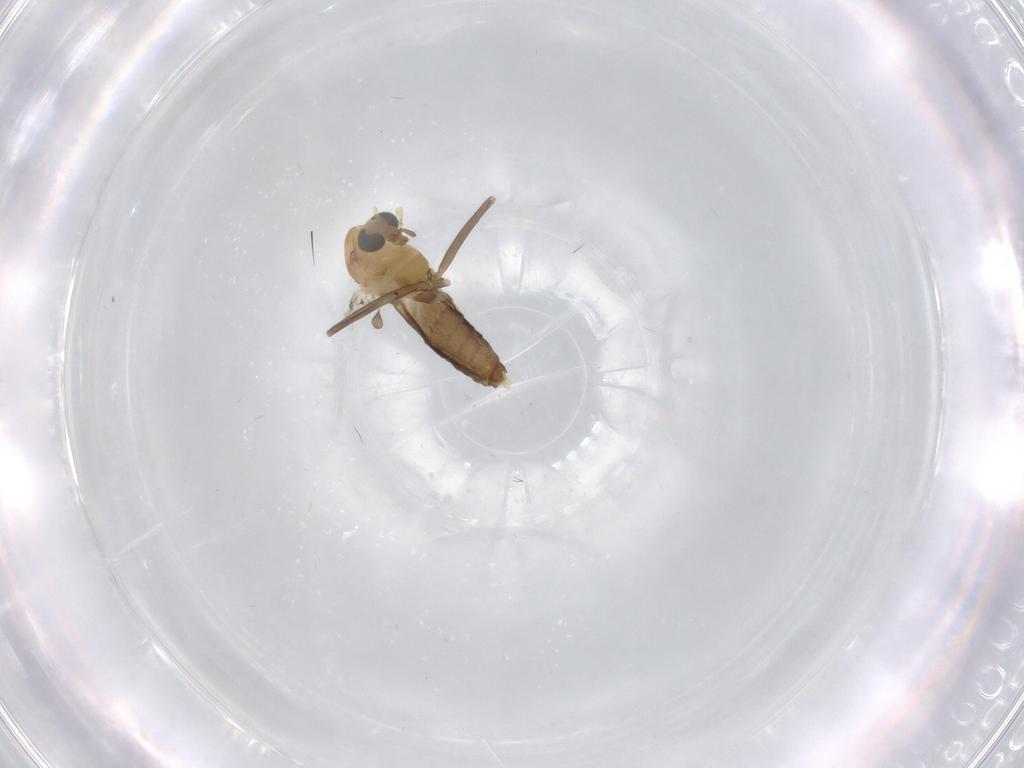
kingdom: Animalia
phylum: Arthropoda
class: Insecta
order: Diptera
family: Chironomidae
